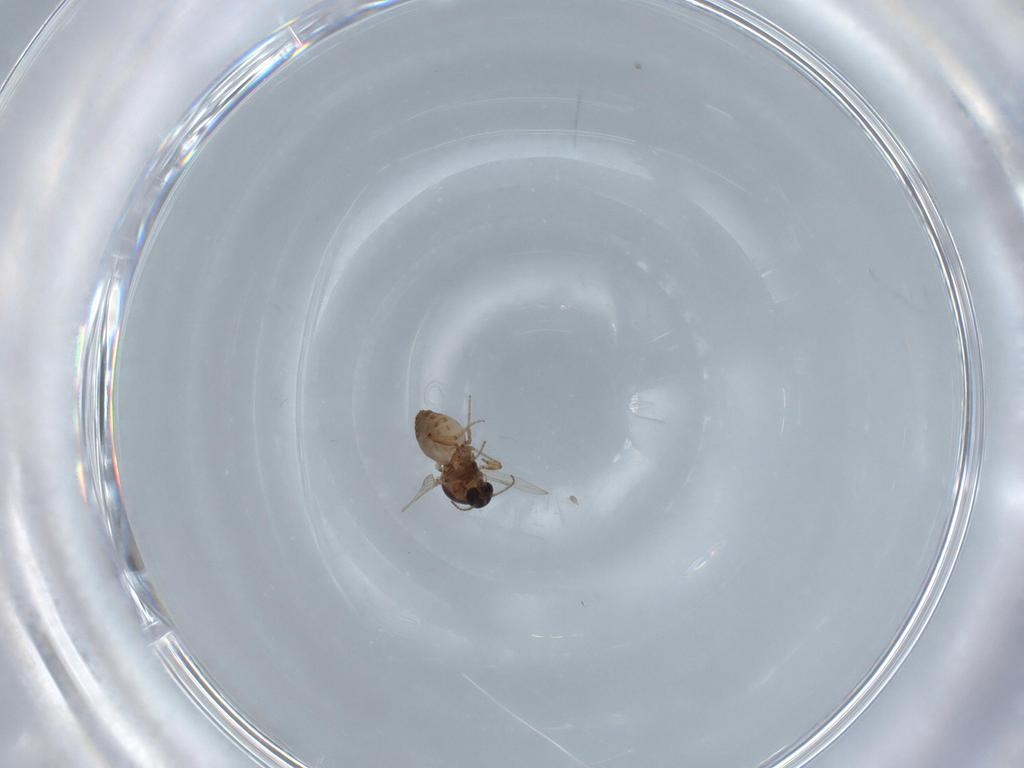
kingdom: Animalia
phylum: Arthropoda
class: Insecta
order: Diptera
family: Ceratopogonidae
